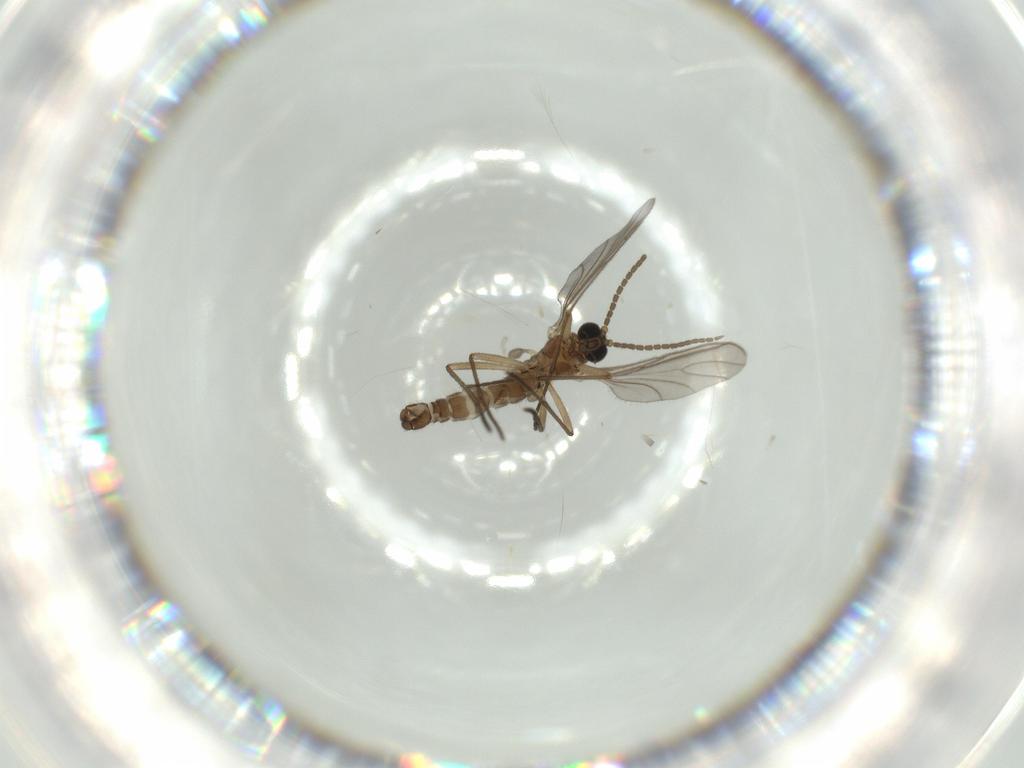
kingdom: Animalia
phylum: Arthropoda
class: Insecta
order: Diptera
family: Sciaridae
